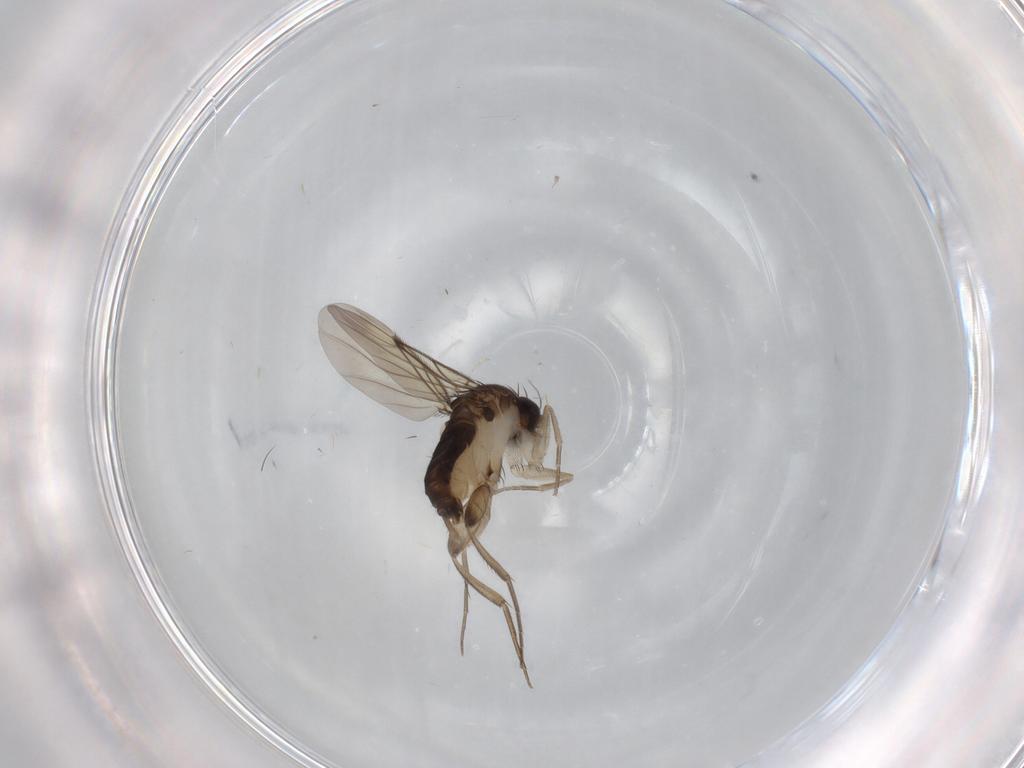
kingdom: Animalia
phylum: Arthropoda
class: Insecta
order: Diptera
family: Phoridae
